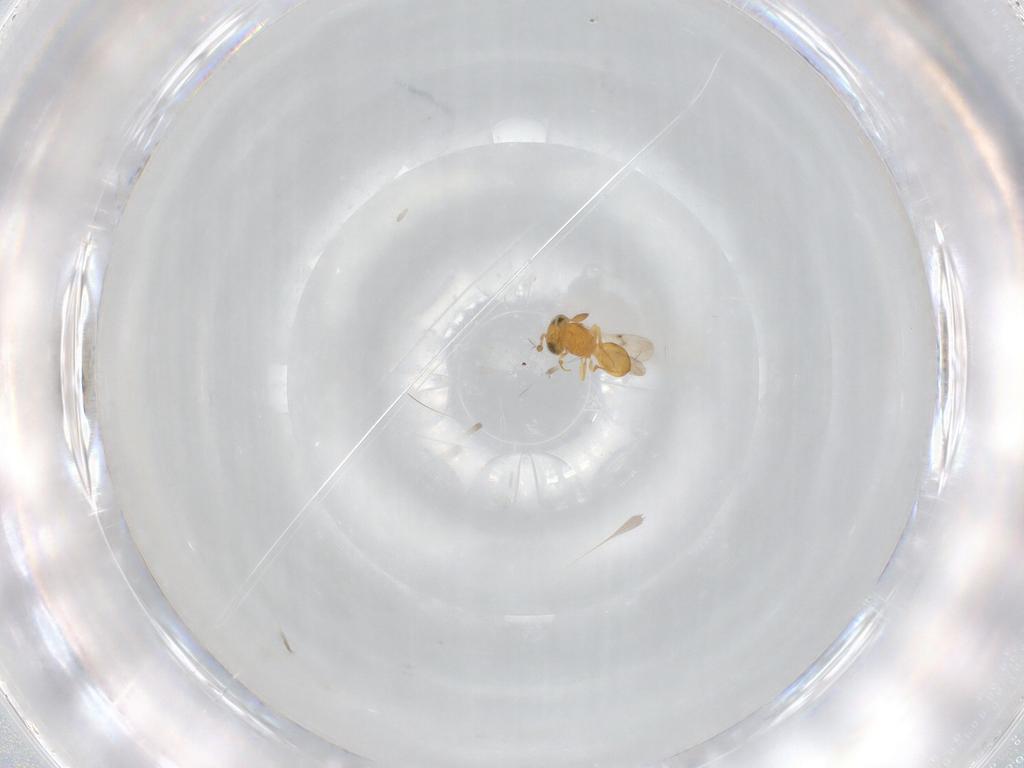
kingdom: Animalia
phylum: Arthropoda
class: Insecta
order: Hymenoptera
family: Scelionidae
